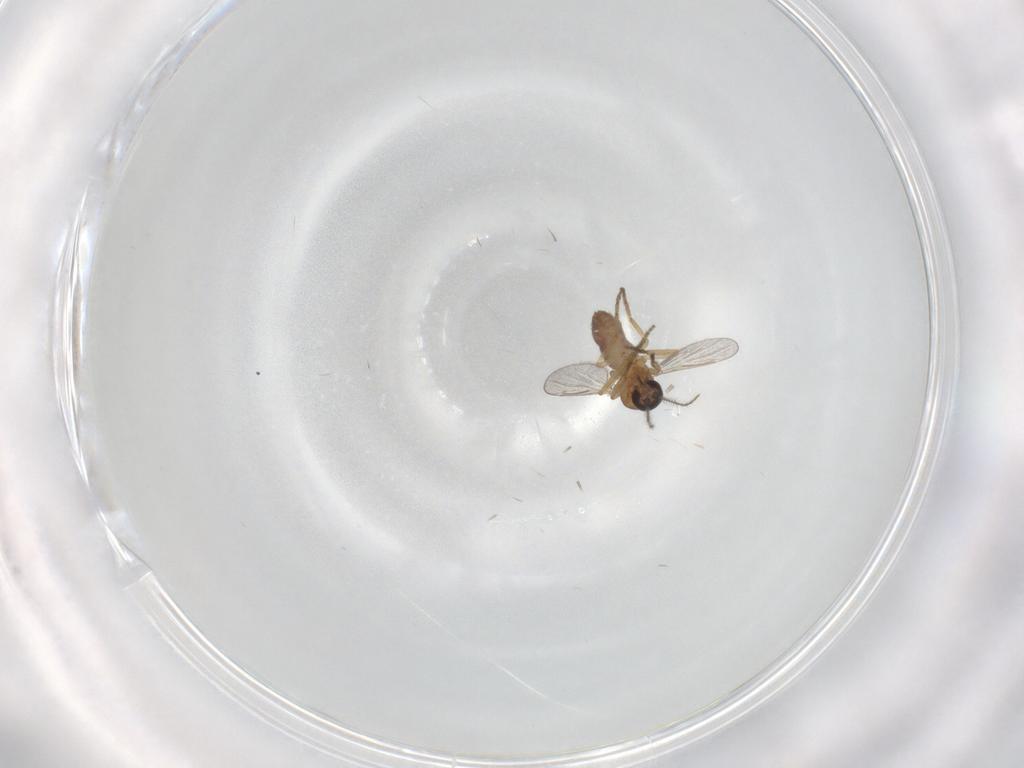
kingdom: Animalia
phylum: Arthropoda
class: Insecta
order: Diptera
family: Ceratopogonidae
